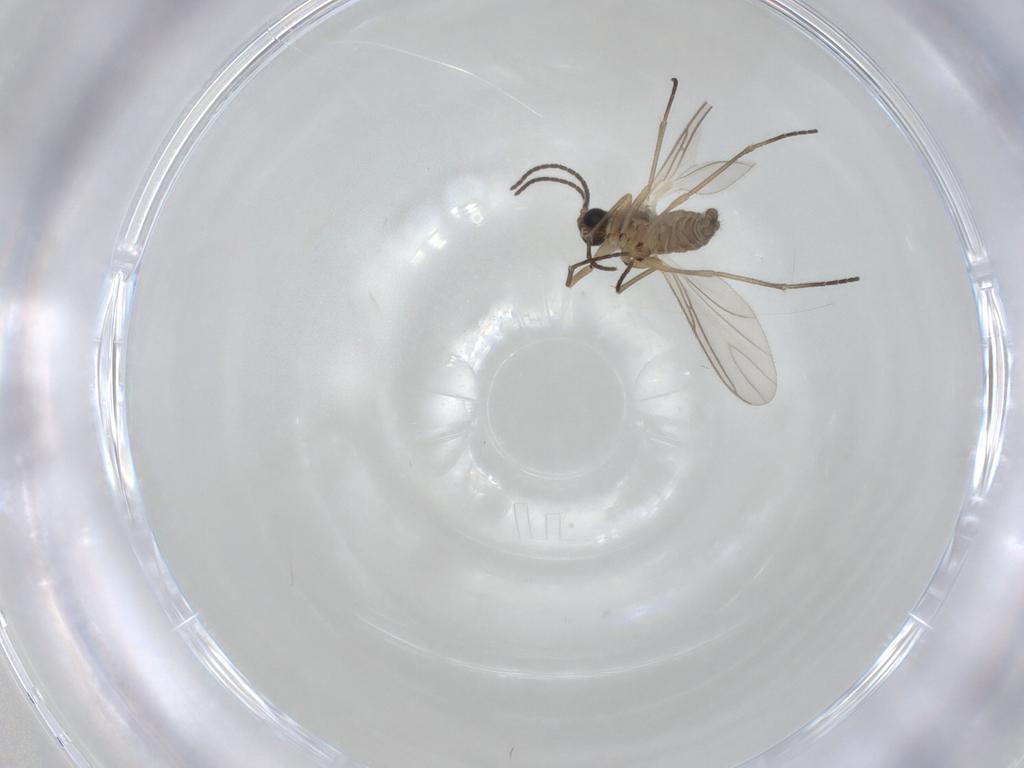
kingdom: Animalia
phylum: Arthropoda
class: Insecta
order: Diptera
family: Sciaridae
